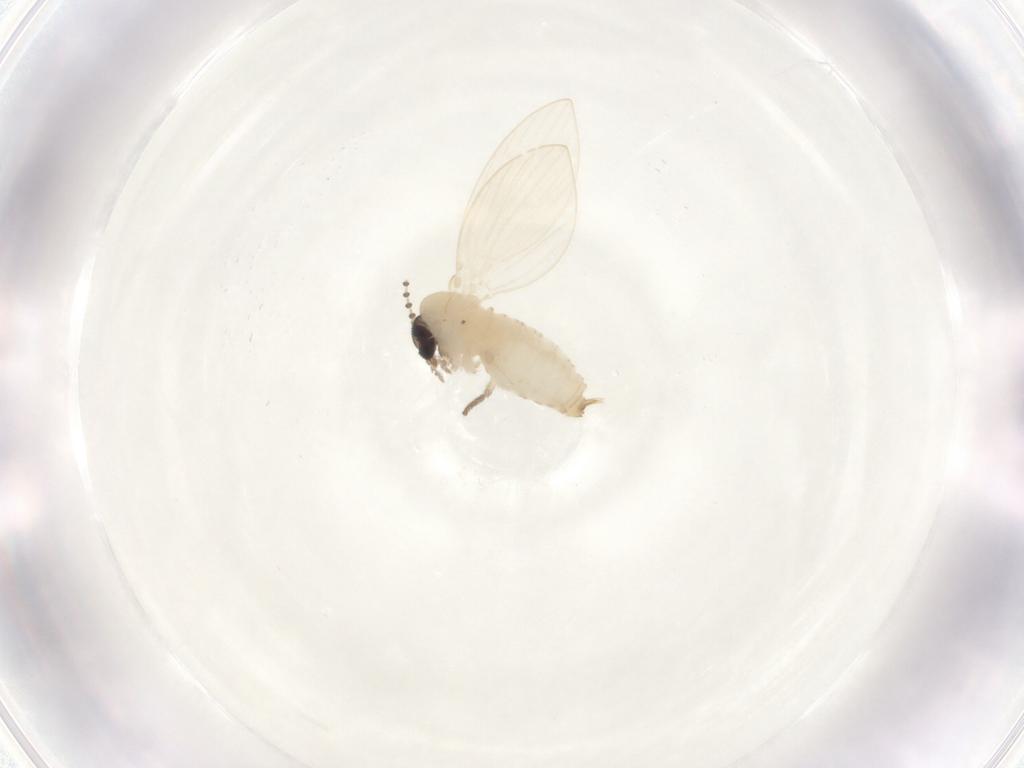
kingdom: Animalia
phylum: Arthropoda
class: Insecta
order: Diptera
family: Psychodidae
